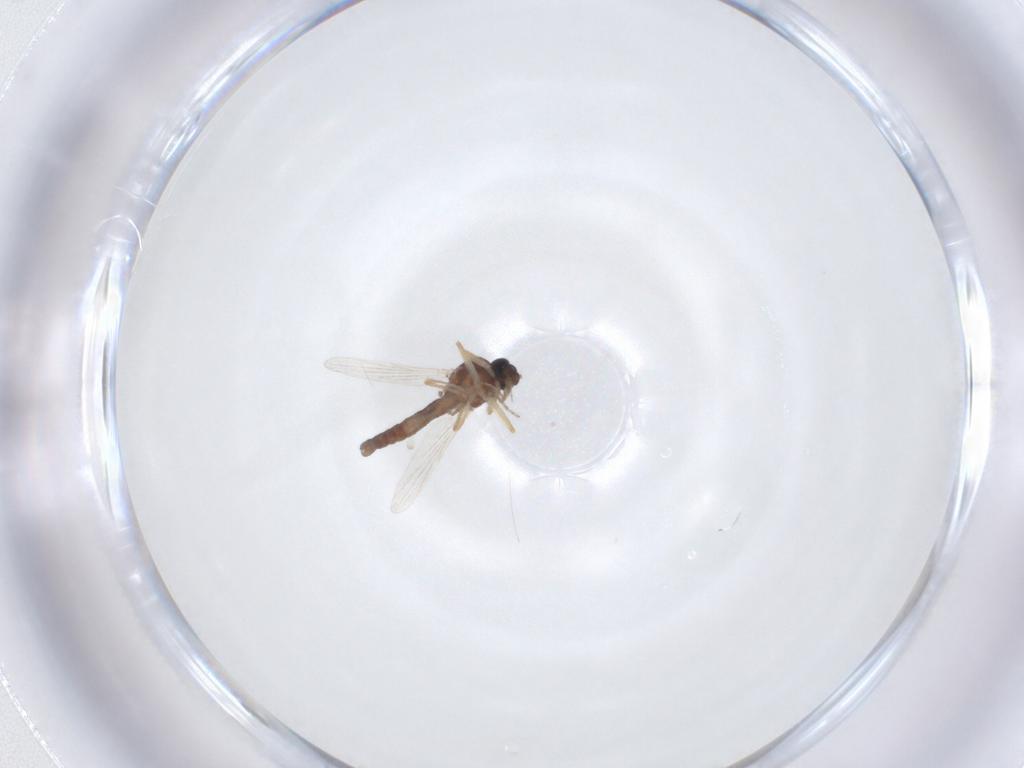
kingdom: Animalia
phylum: Arthropoda
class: Insecta
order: Diptera
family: Ceratopogonidae
